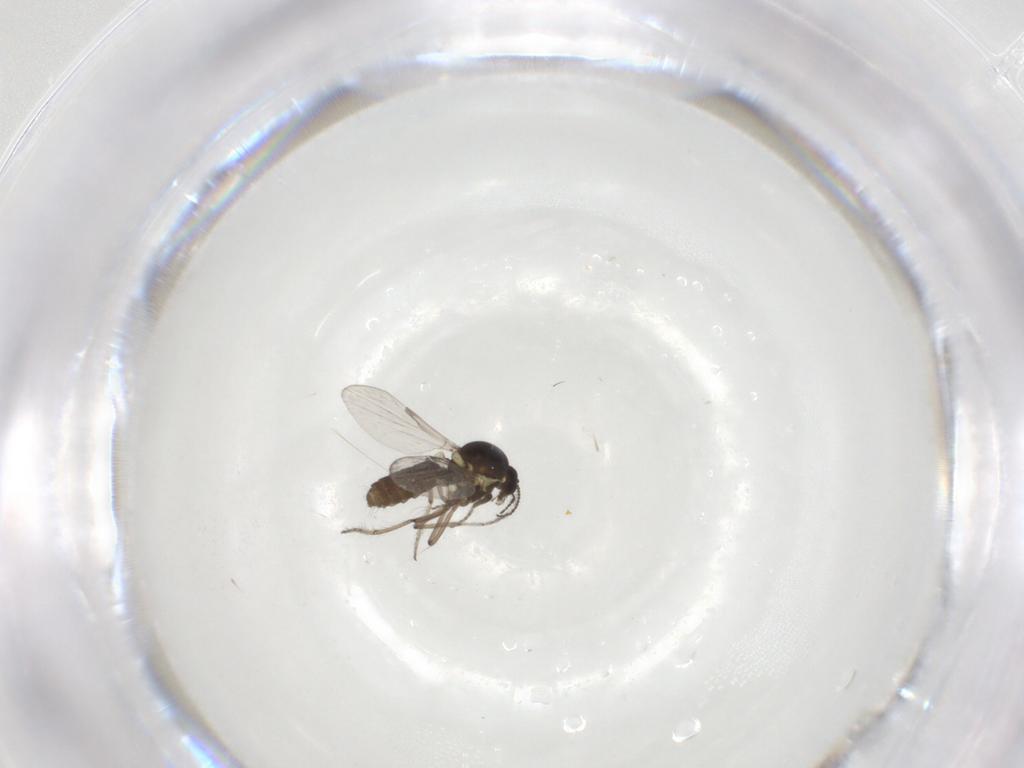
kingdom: Animalia
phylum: Arthropoda
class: Insecta
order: Diptera
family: Ceratopogonidae
